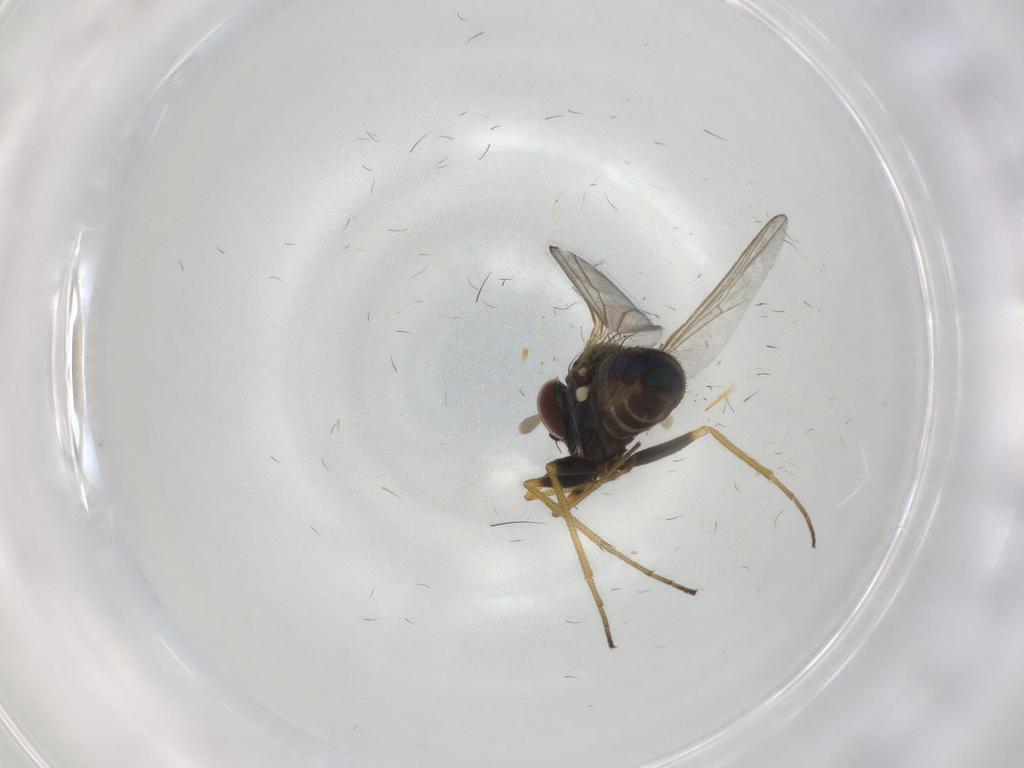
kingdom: Animalia
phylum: Arthropoda
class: Insecta
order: Diptera
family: Dolichopodidae
